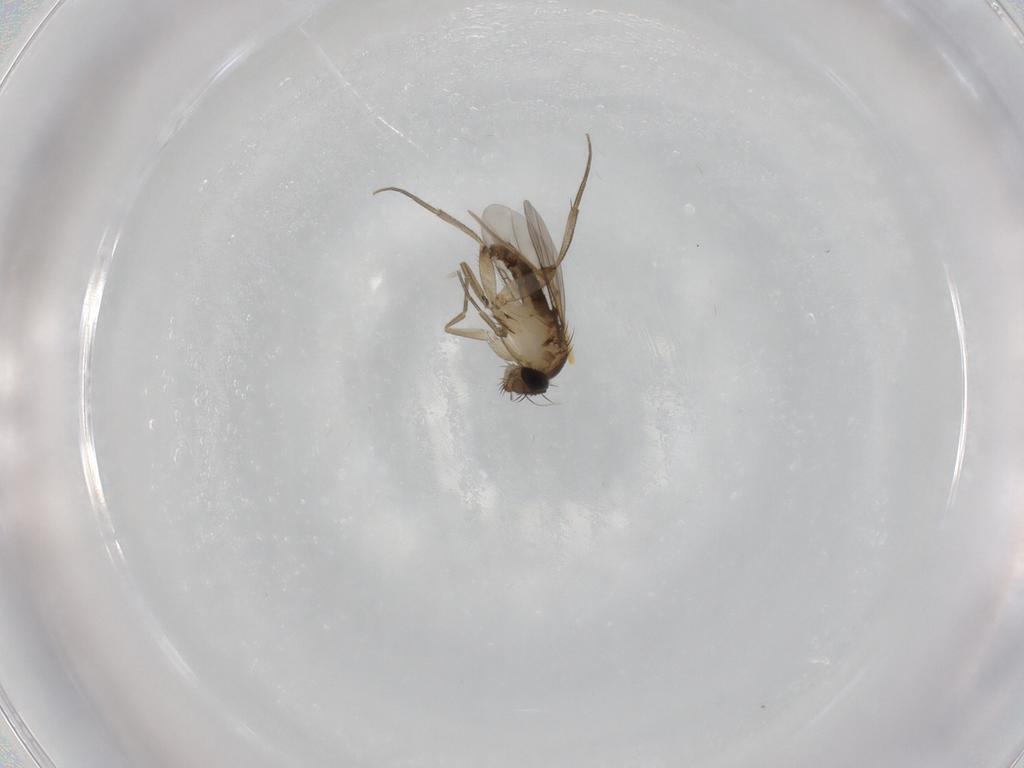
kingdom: Animalia
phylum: Arthropoda
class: Insecta
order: Diptera
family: Phoridae
